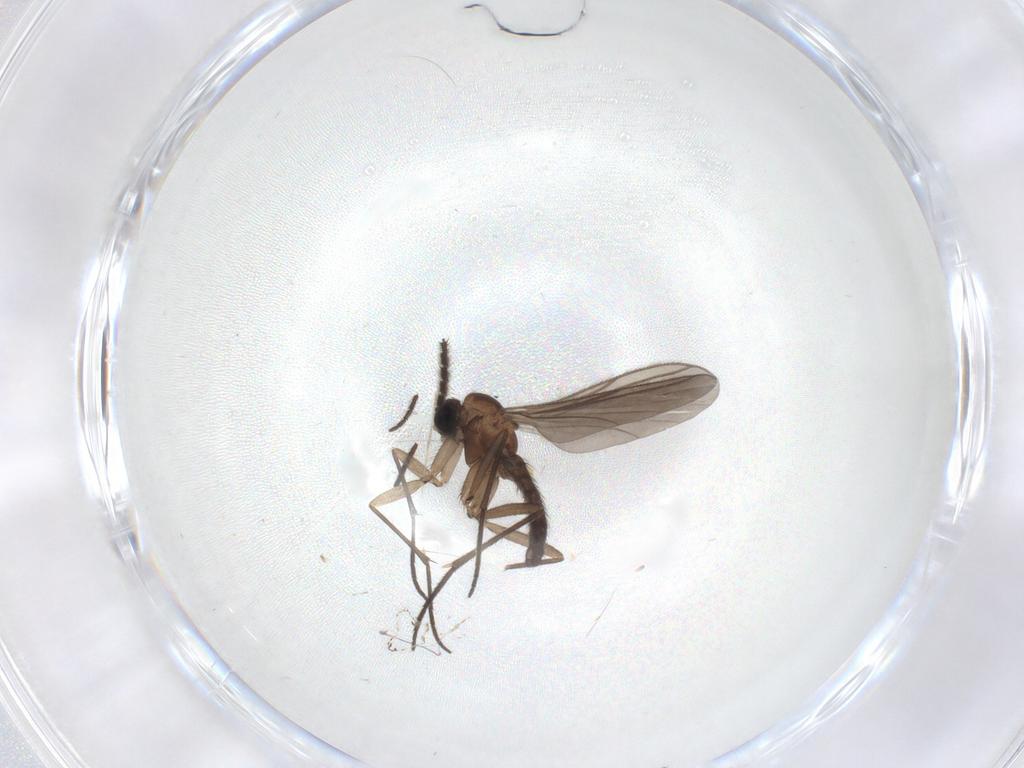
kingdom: Animalia
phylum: Arthropoda
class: Insecta
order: Diptera
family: Sciaridae
